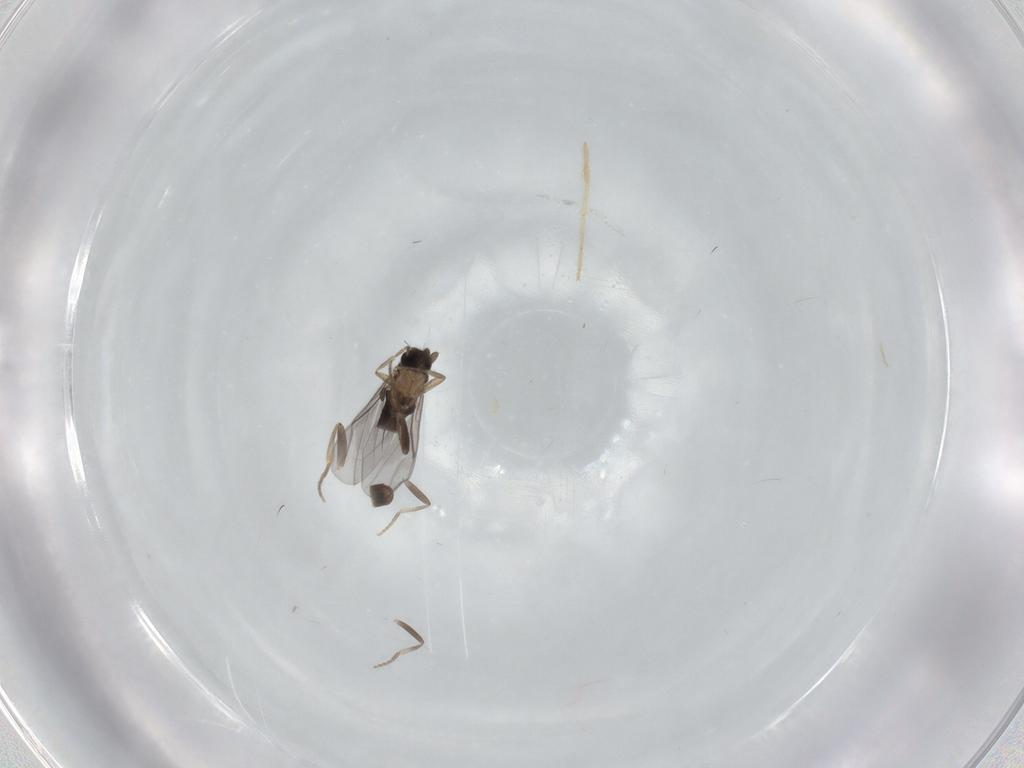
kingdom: Animalia
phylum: Arthropoda
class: Insecta
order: Diptera
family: Phoridae
